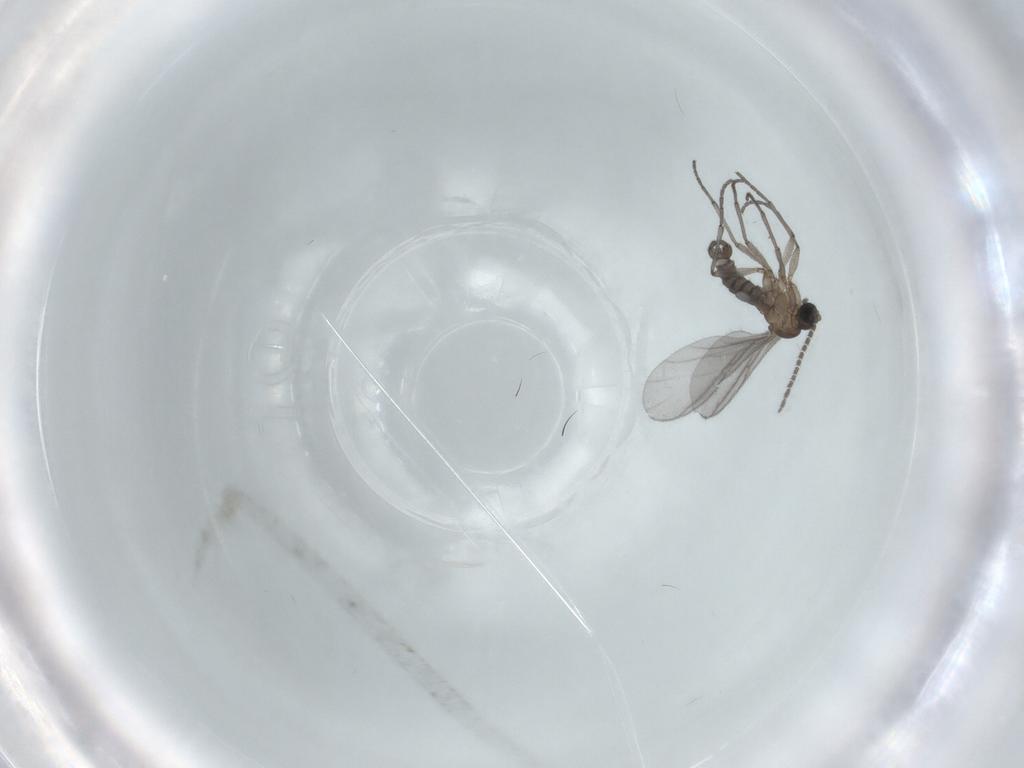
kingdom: Animalia
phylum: Arthropoda
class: Insecta
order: Diptera
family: Sciaridae
